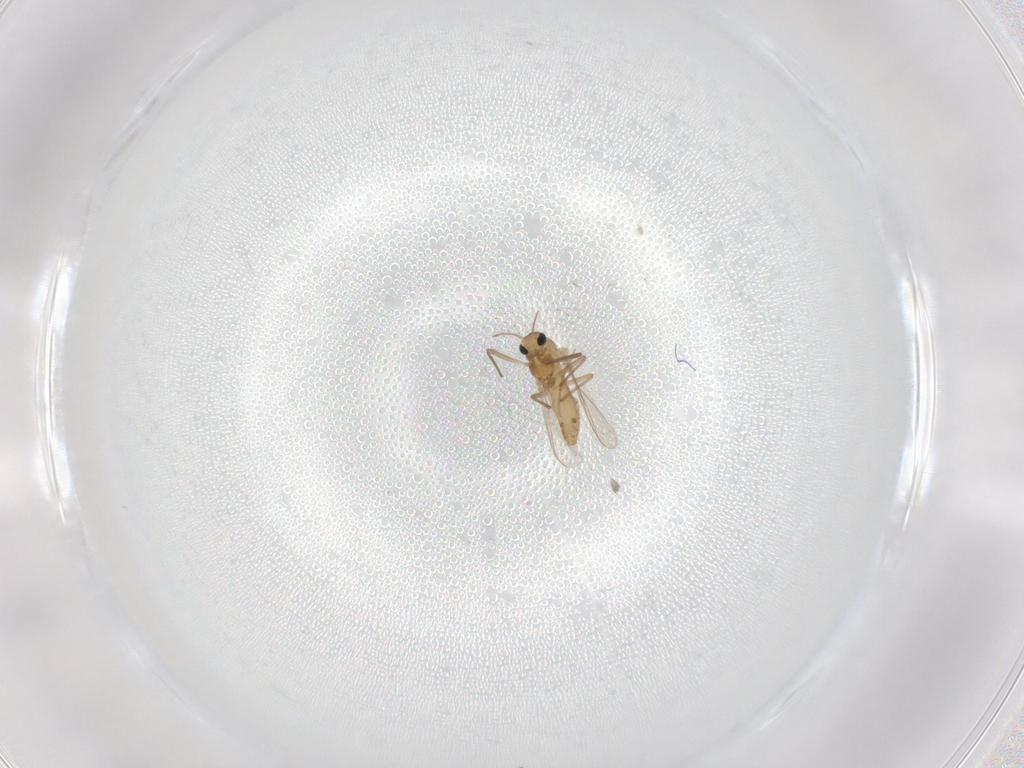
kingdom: Animalia
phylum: Arthropoda
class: Insecta
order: Diptera
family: Chironomidae
